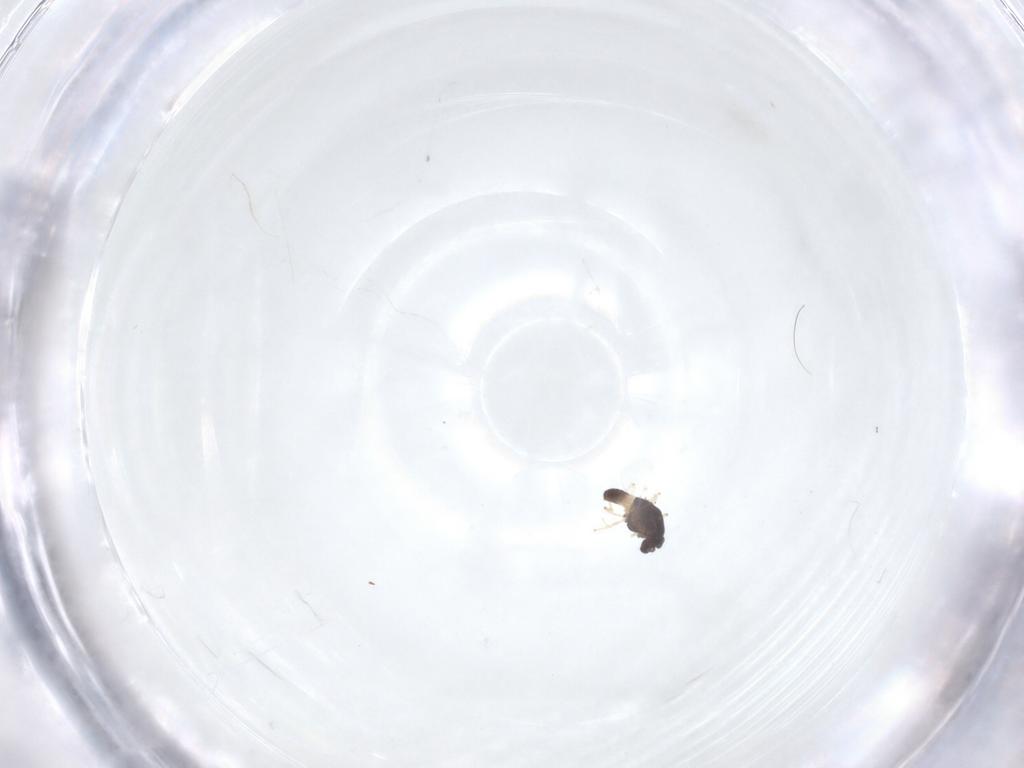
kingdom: Animalia
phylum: Arthropoda
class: Insecta
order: Diptera
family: Chironomidae
